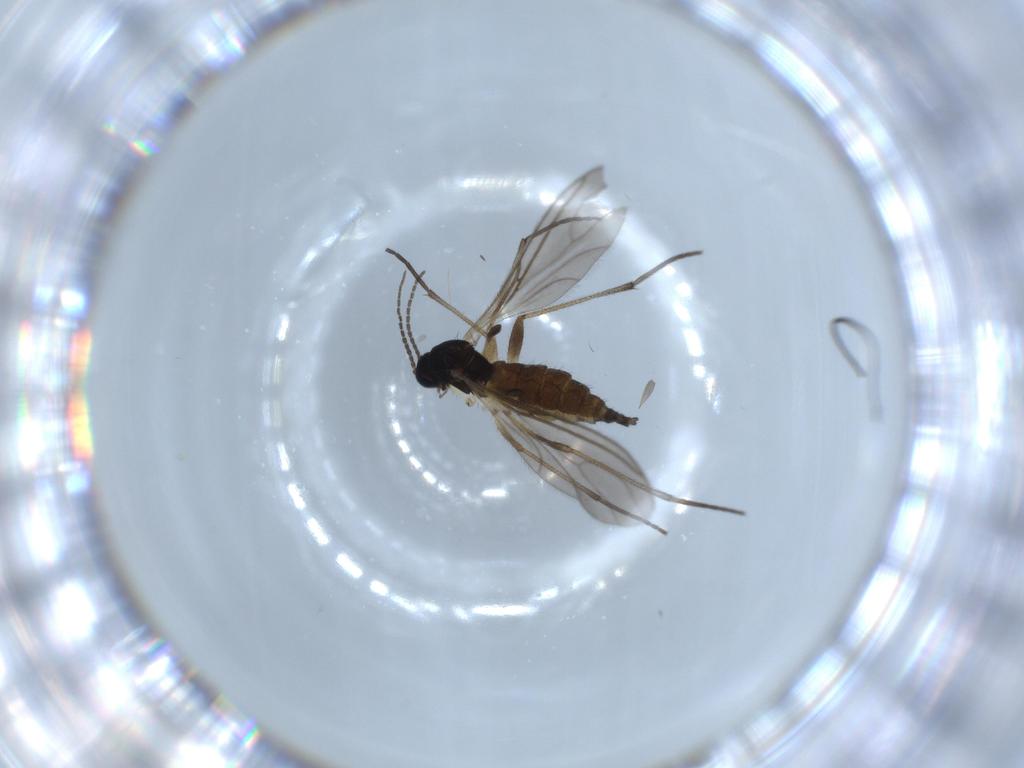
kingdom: Animalia
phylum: Arthropoda
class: Insecta
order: Diptera
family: Sciaridae
